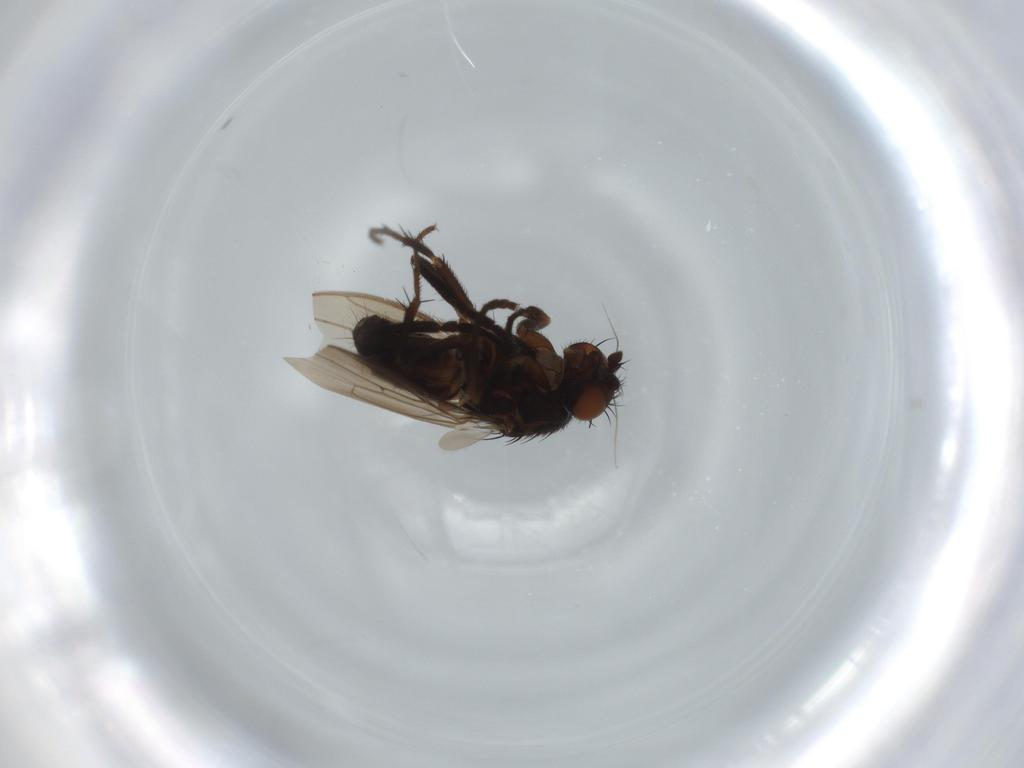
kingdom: Animalia
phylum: Arthropoda
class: Insecta
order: Diptera
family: Sphaeroceridae
